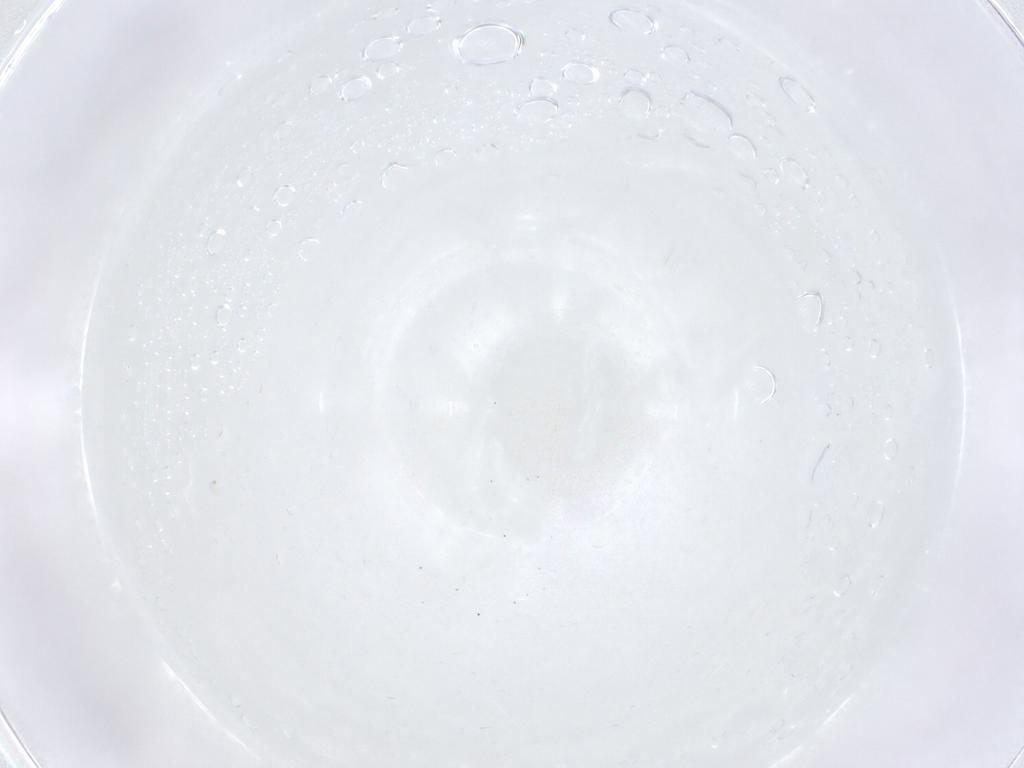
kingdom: Animalia
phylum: Arthropoda
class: Collembola
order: Poduromorpha
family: Hypogastruridae
